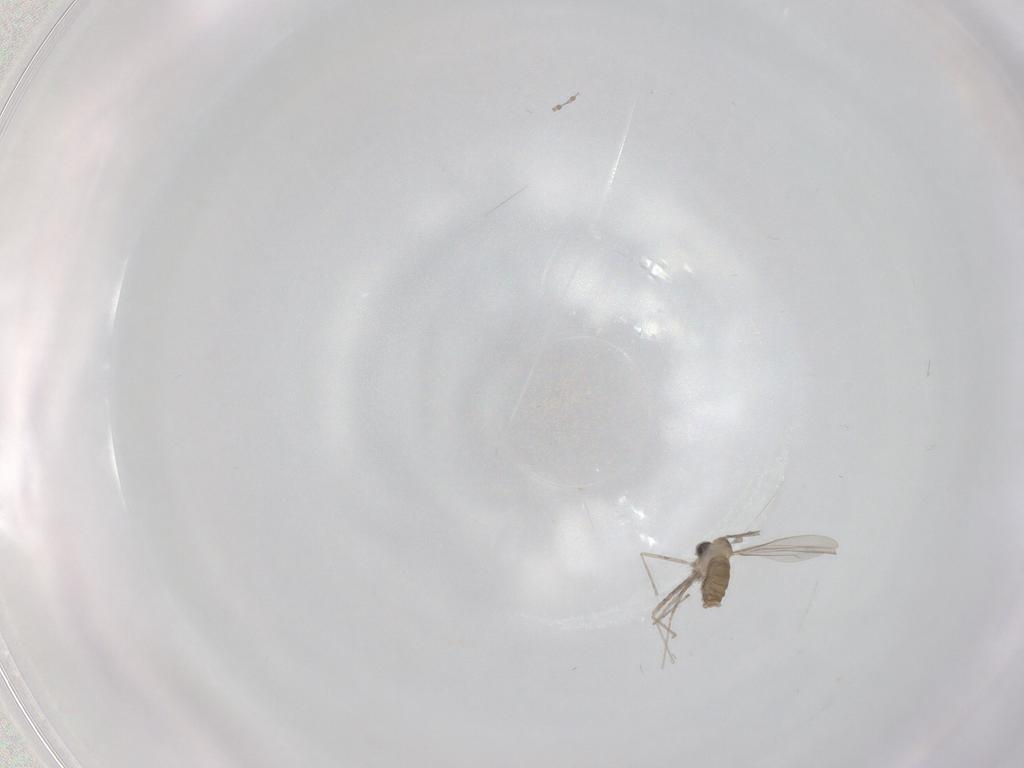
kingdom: Animalia
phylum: Arthropoda
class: Insecta
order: Diptera
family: Cecidomyiidae
